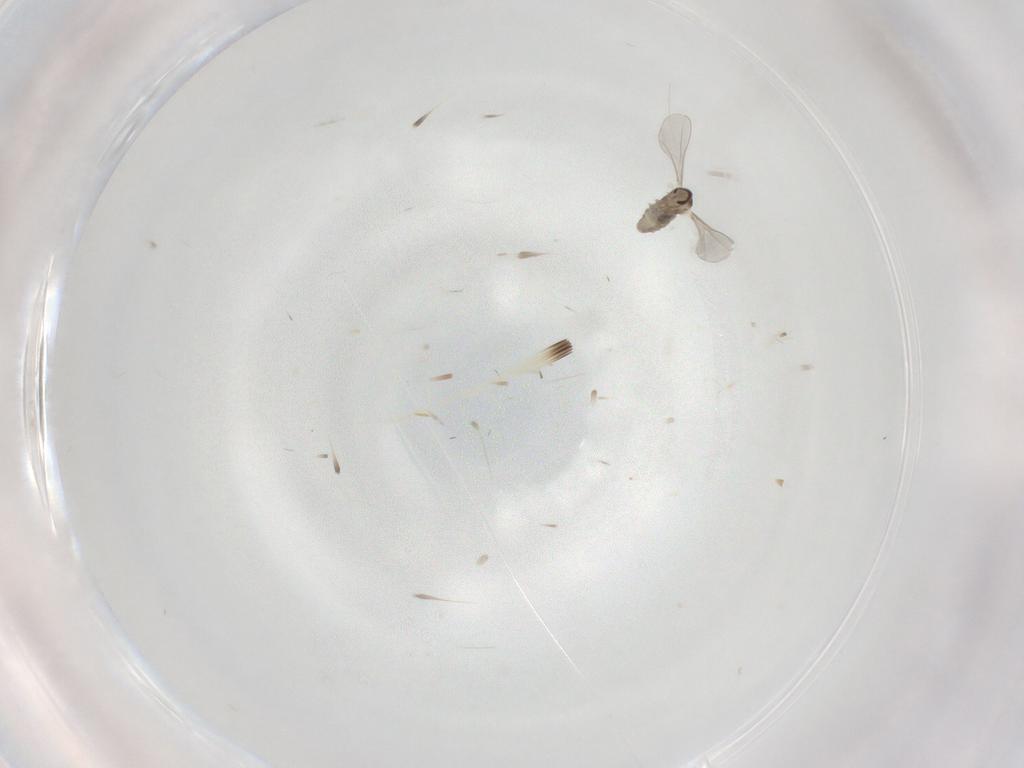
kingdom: Animalia
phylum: Arthropoda
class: Insecta
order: Diptera
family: Cecidomyiidae
